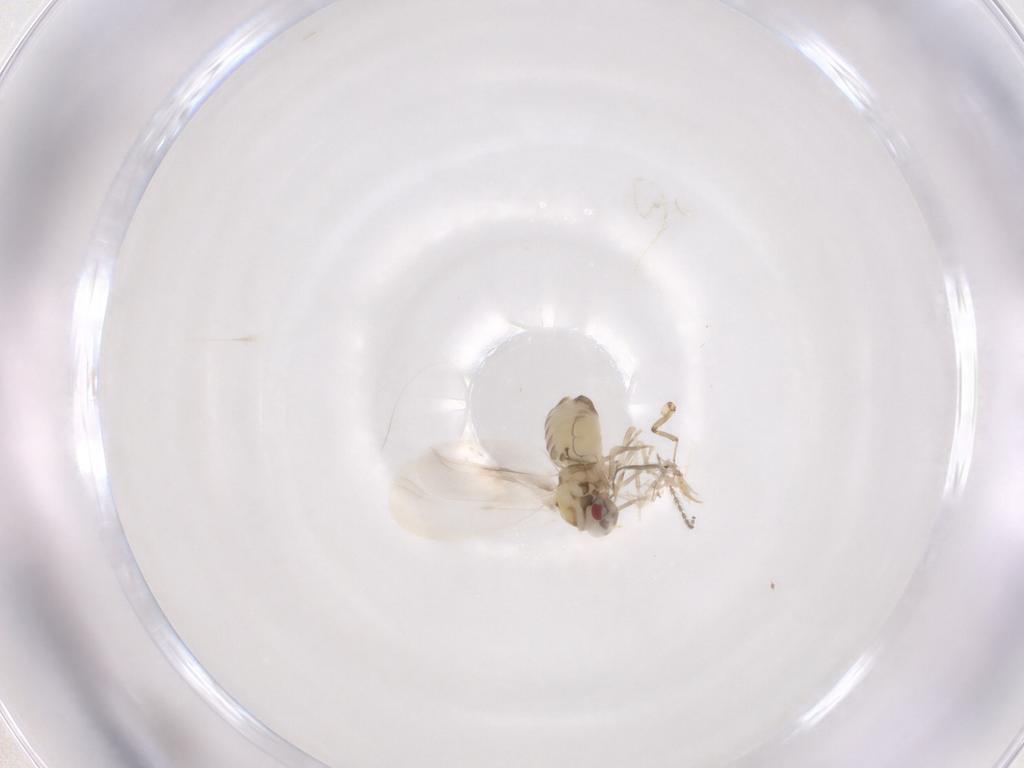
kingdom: Animalia
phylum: Arthropoda
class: Insecta
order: Hemiptera
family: Aleyrodidae
